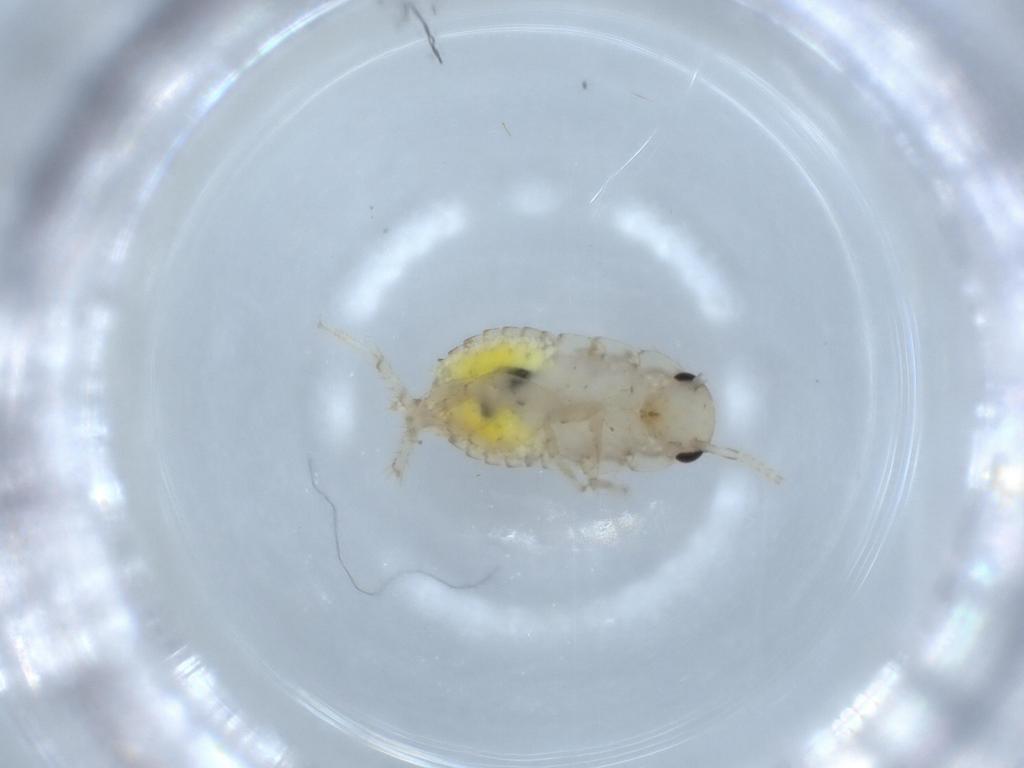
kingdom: Animalia
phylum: Arthropoda
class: Insecta
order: Blattodea
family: Ectobiidae
